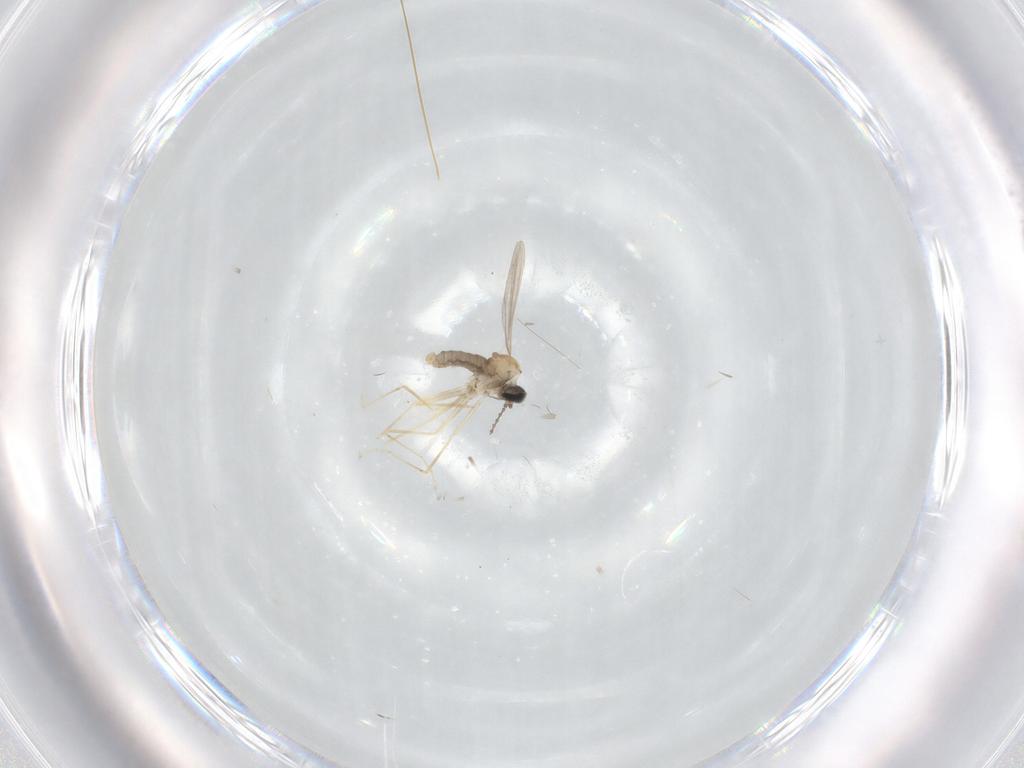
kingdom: Animalia
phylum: Arthropoda
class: Insecta
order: Diptera
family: Cecidomyiidae
